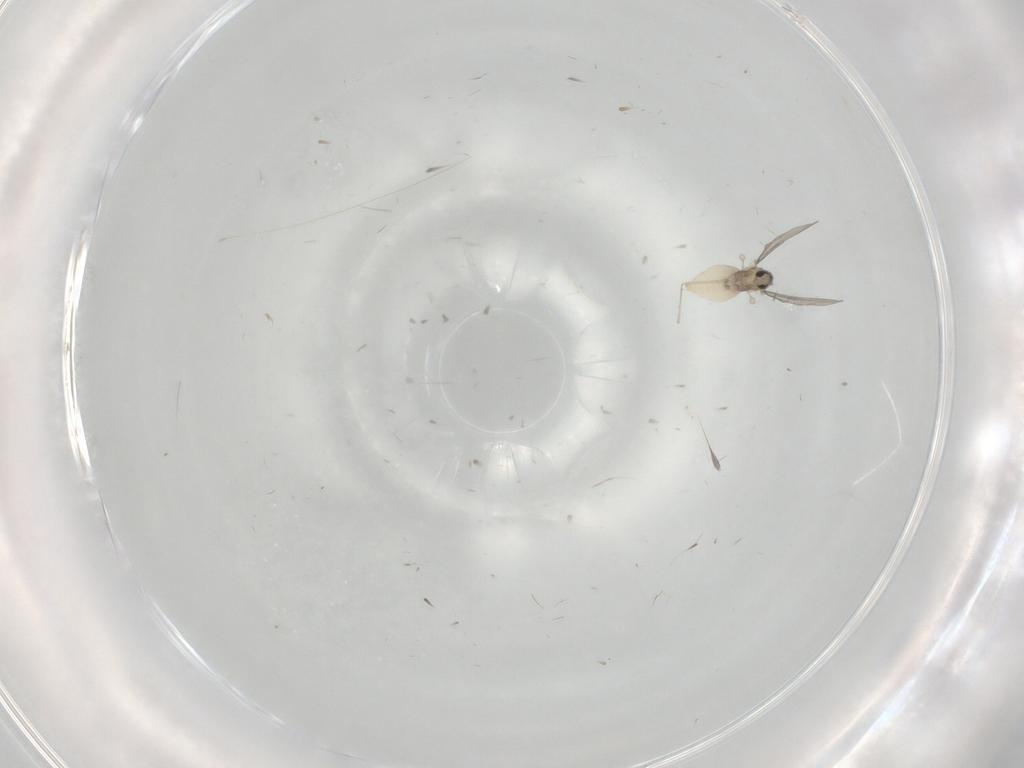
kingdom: Animalia
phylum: Arthropoda
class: Insecta
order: Diptera
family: Cecidomyiidae
